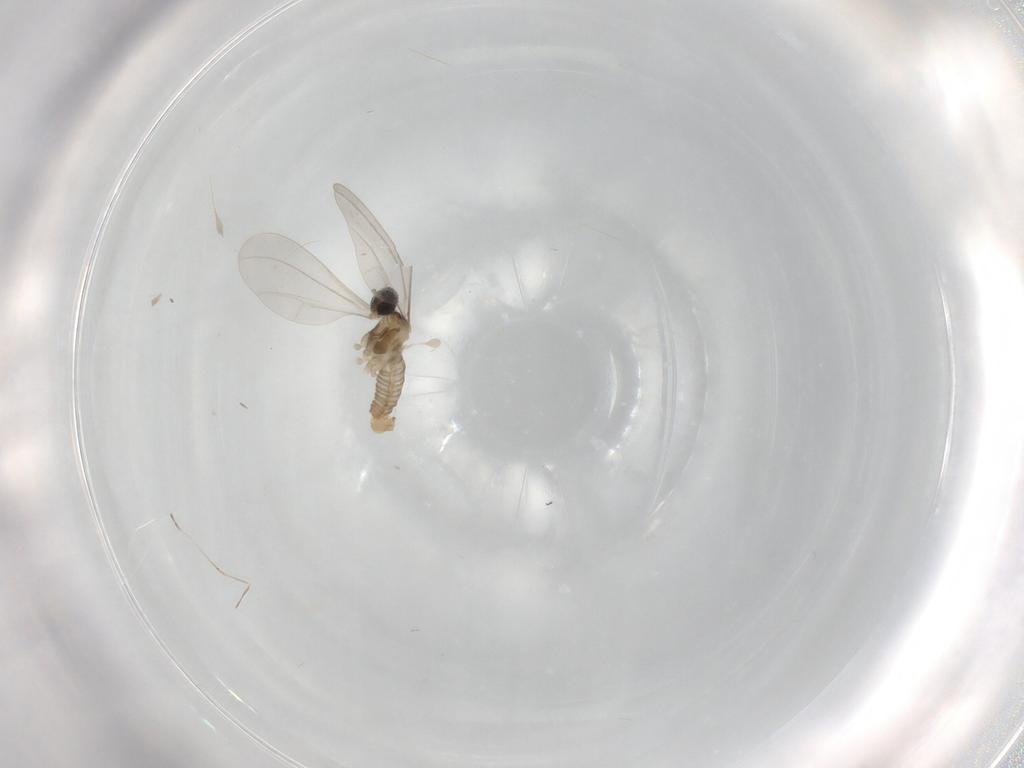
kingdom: Animalia
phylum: Arthropoda
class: Insecta
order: Diptera
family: Cecidomyiidae
